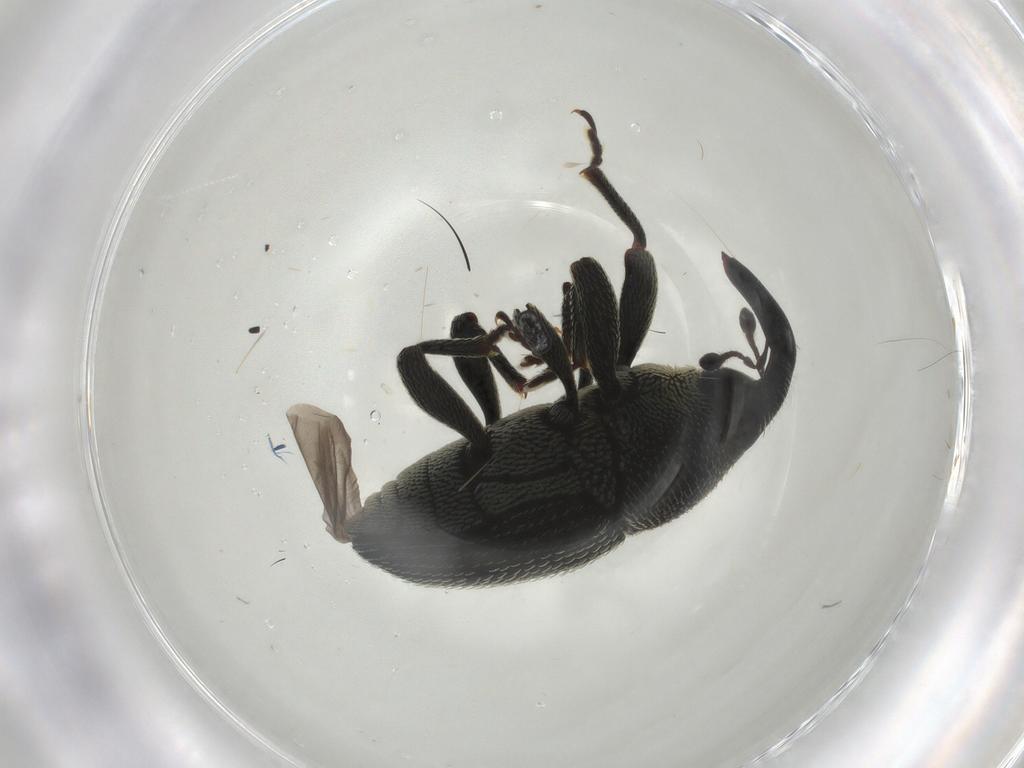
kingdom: Animalia
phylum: Arthropoda
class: Insecta
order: Coleoptera
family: Curculionidae
